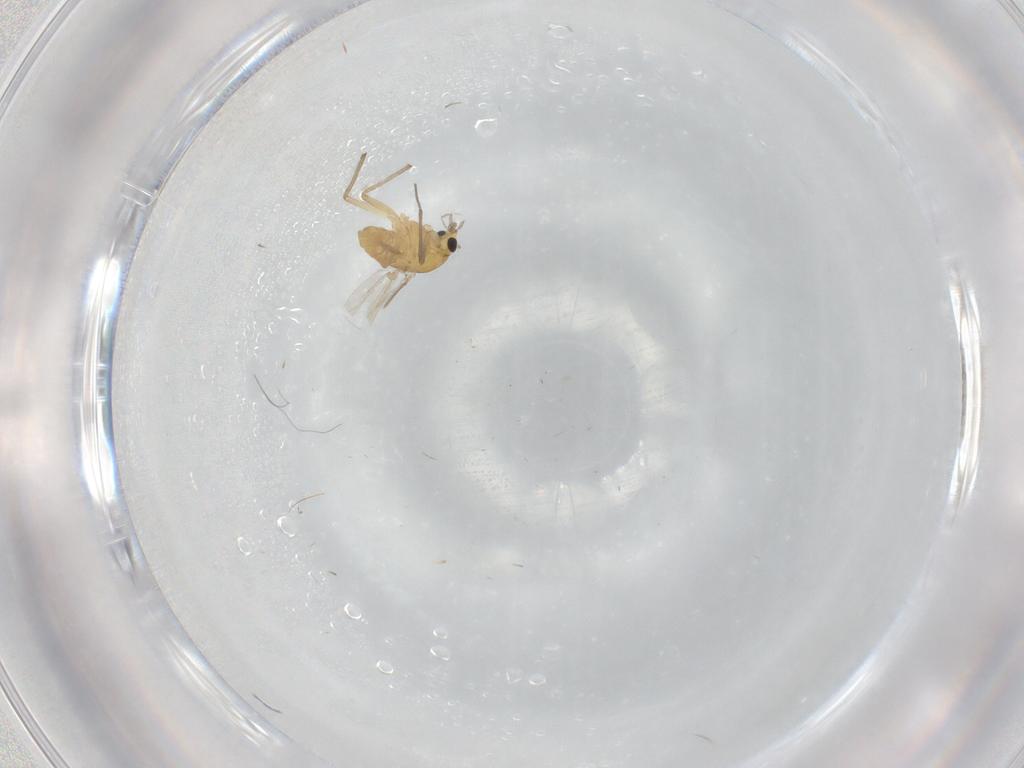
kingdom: Animalia
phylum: Arthropoda
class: Insecta
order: Diptera
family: Chironomidae
